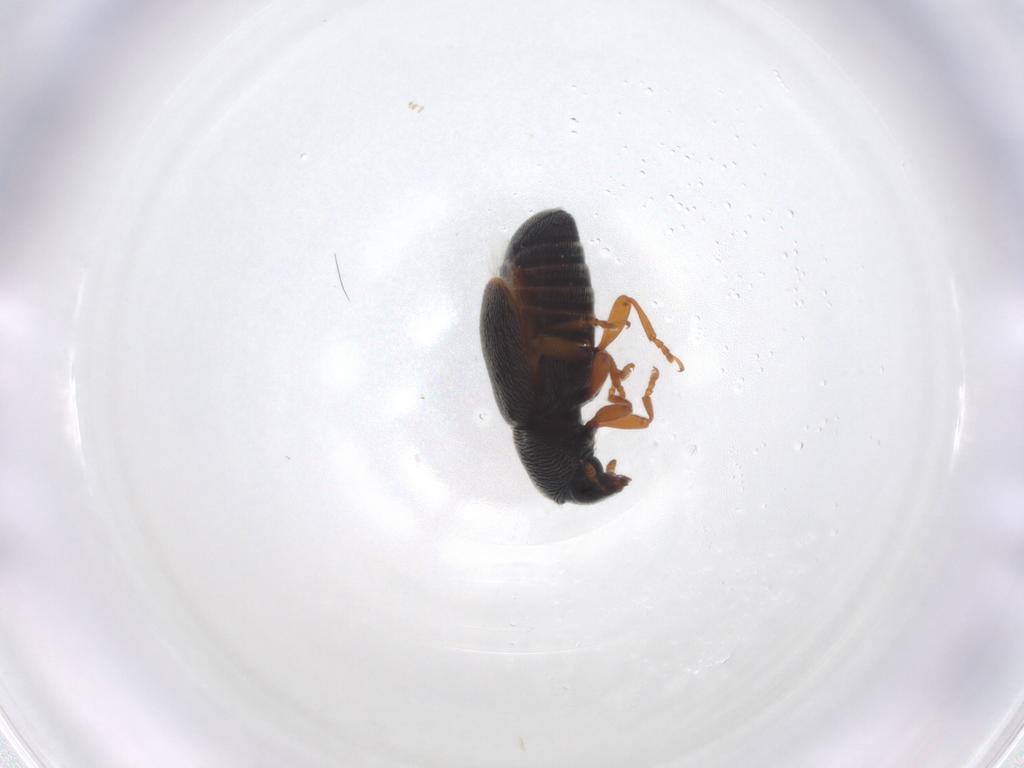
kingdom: Animalia
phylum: Arthropoda
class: Insecta
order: Coleoptera
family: Anthribidae
